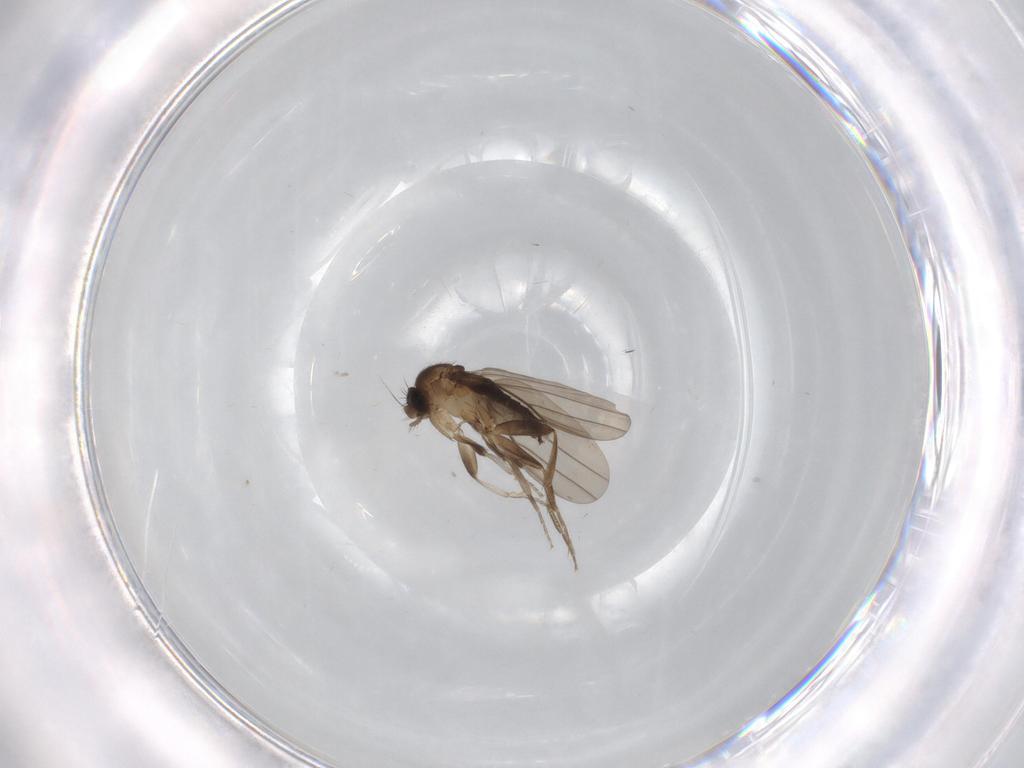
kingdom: Animalia
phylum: Arthropoda
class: Insecta
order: Diptera
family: Phoridae
